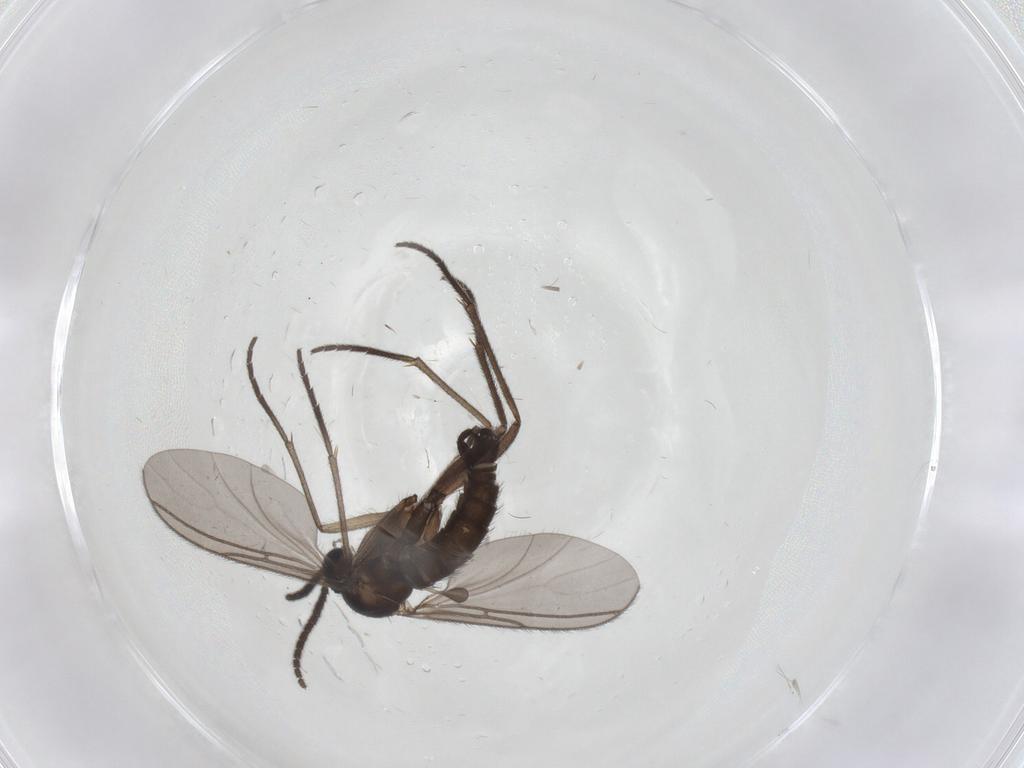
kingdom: Animalia
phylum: Arthropoda
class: Insecta
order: Diptera
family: Sciaridae
